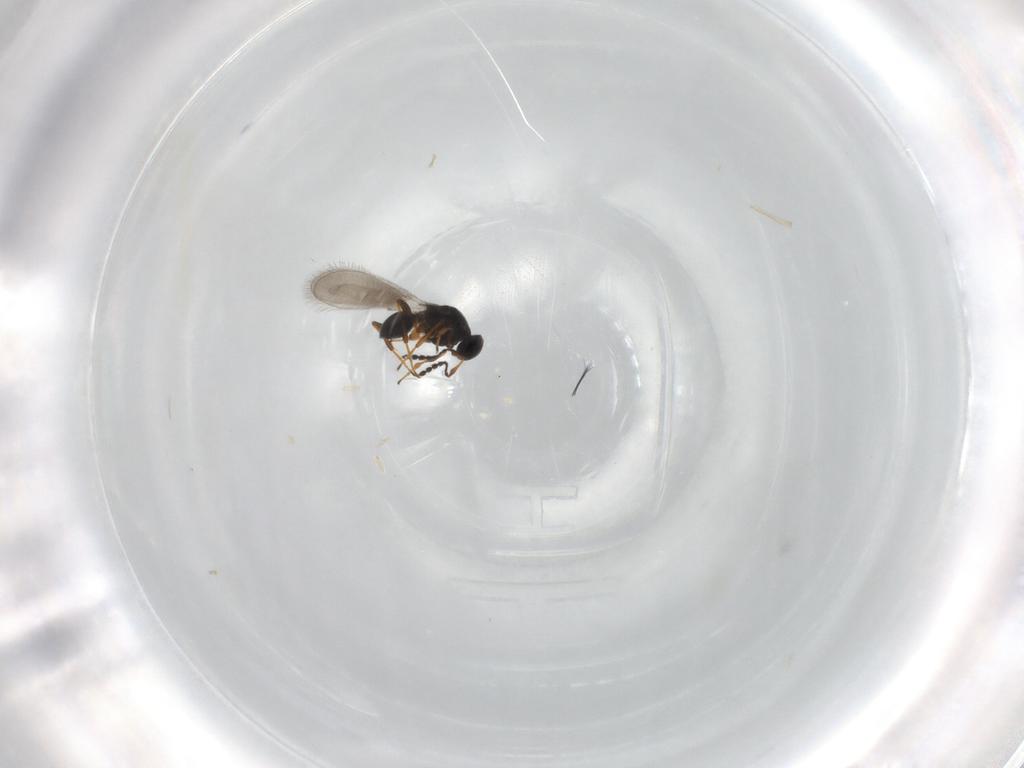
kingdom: Animalia
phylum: Arthropoda
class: Insecta
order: Hymenoptera
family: Platygastridae
